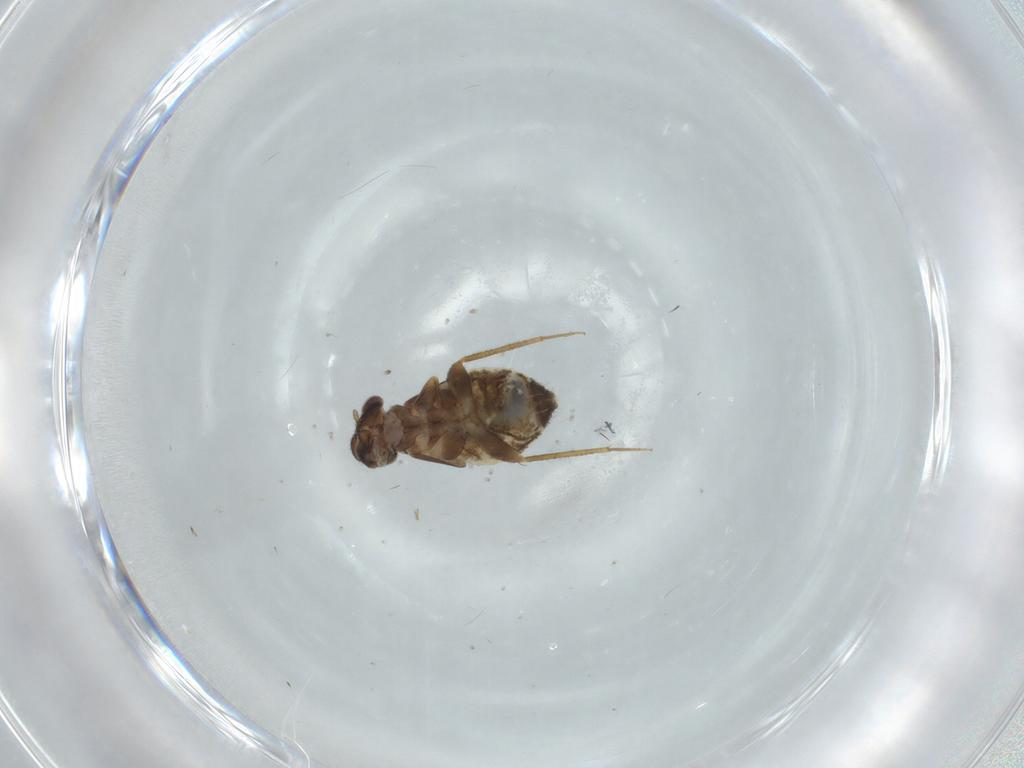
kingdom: Animalia
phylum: Arthropoda
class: Insecta
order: Psocodea
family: Lepidopsocidae
